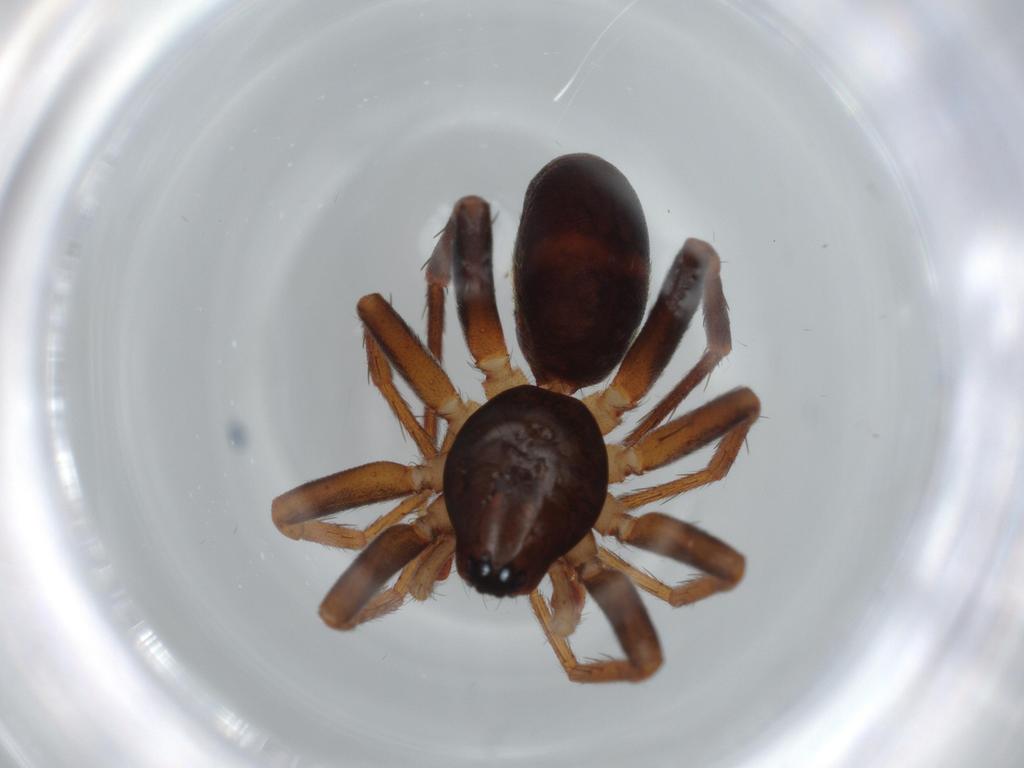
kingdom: Animalia
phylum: Arthropoda
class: Arachnida
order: Araneae
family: Corinnidae
